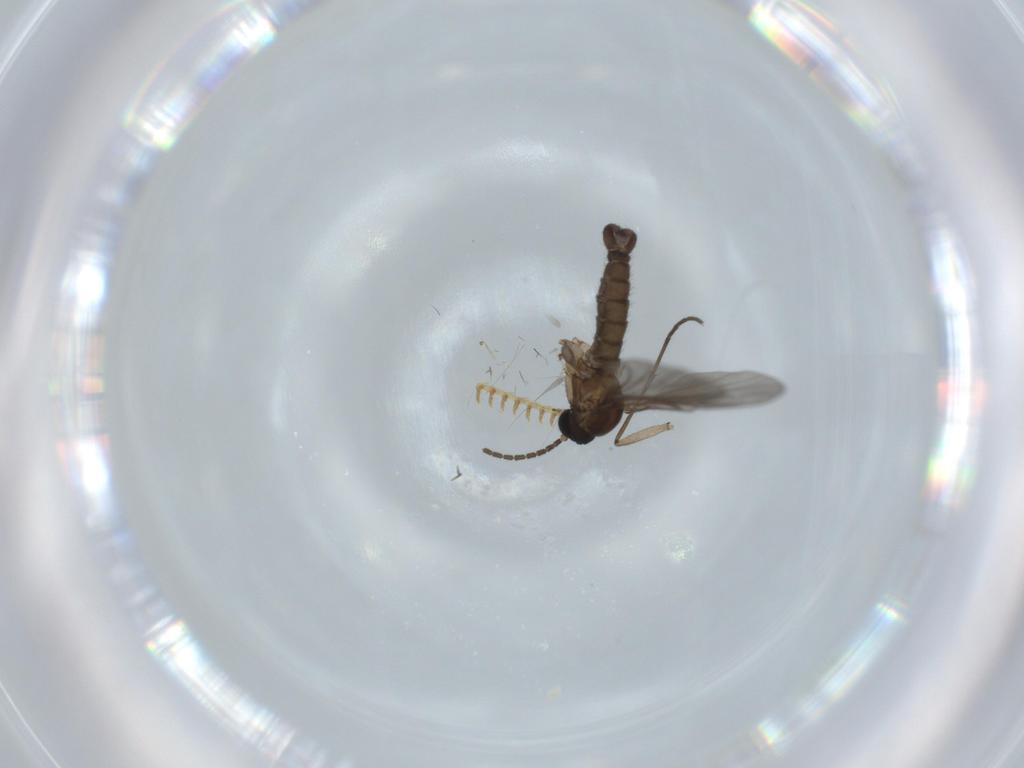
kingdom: Animalia
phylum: Arthropoda
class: Insecta
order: Diptera
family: Sciaridae
